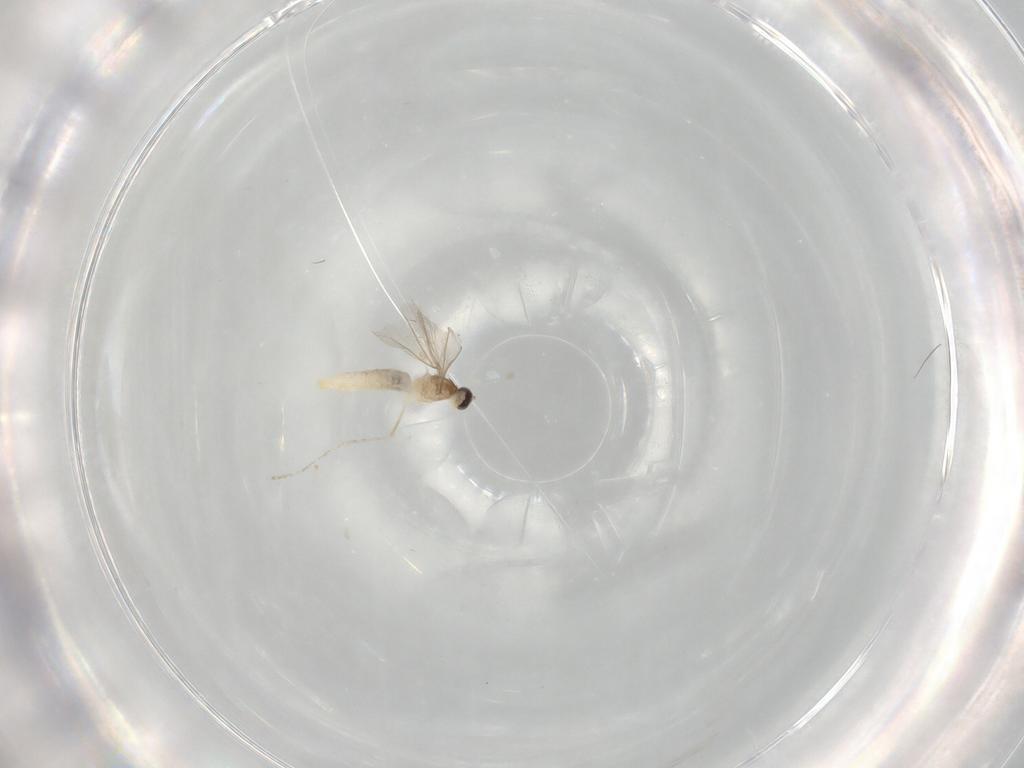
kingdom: Animalia
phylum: Arthropoda
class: Insecta
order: Diptera
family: Cecidomyiidae
